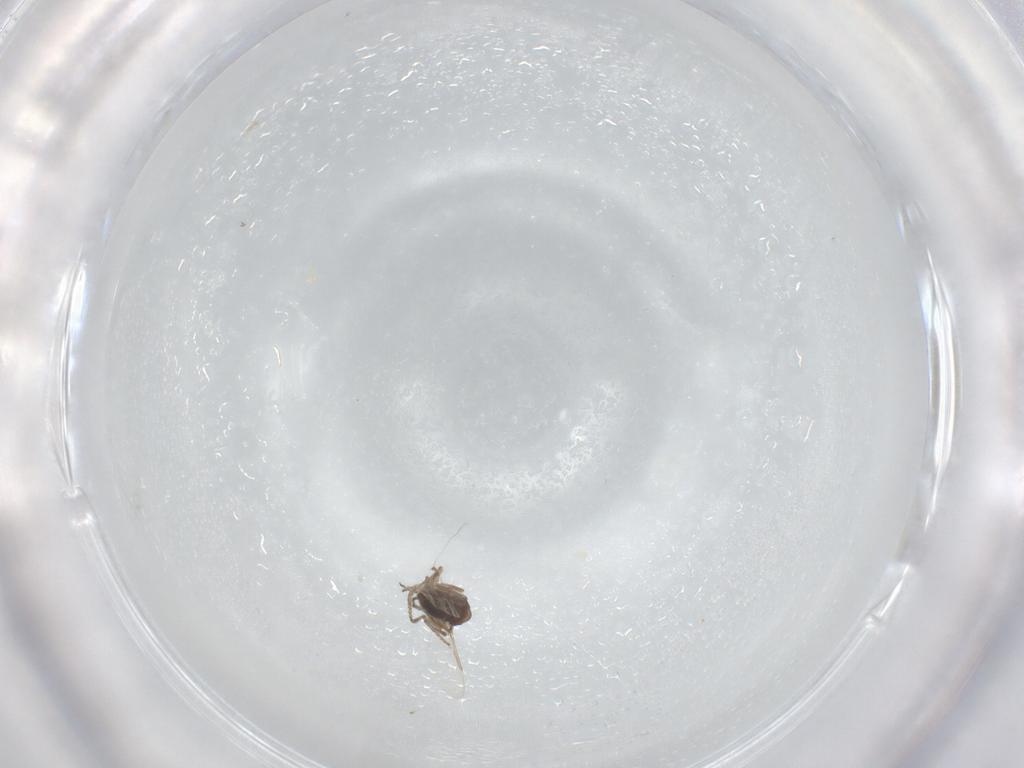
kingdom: Animalia
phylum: Arthropoda
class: Insecta
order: Diptera
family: Ceratopogonidae
